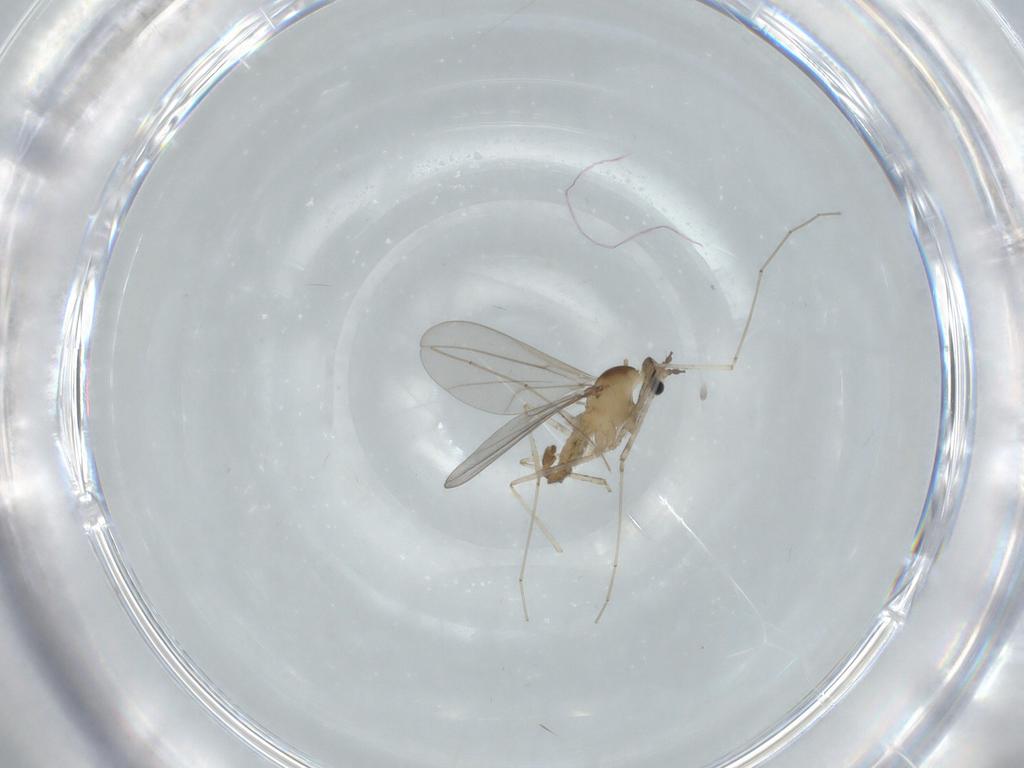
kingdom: Animalia
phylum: Arthropoda
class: Insecta
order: Diptera
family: Cecidomyiidae
